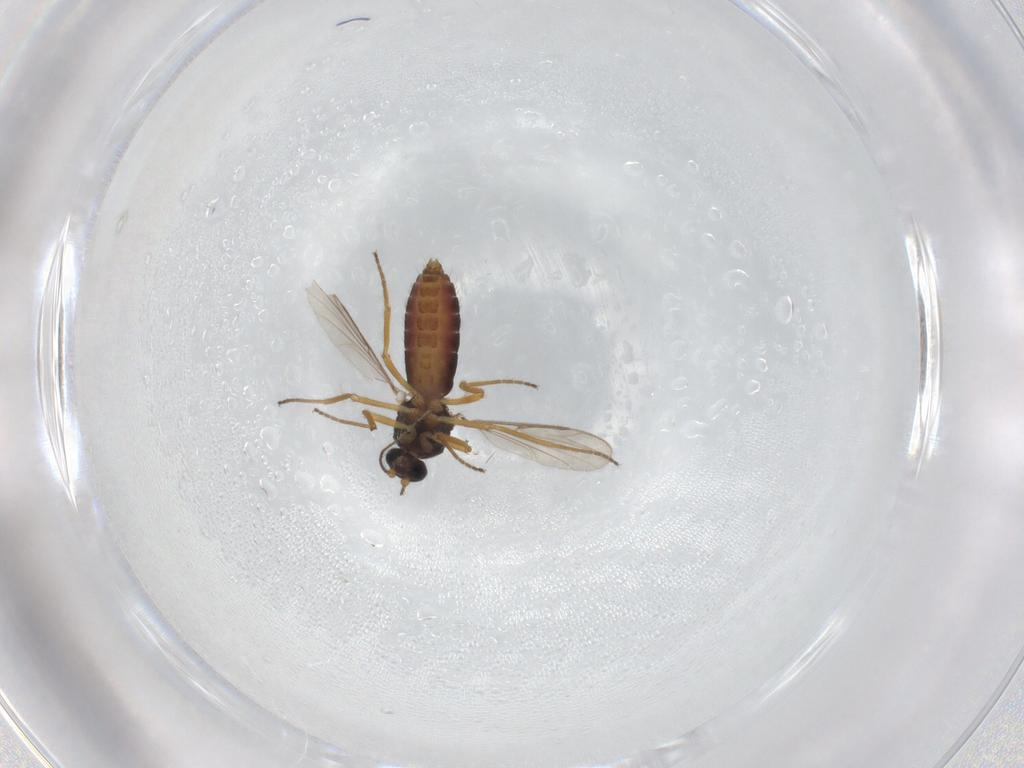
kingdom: Animalia
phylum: Arthropoda
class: Insecta
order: Diptera
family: Ceratopogonidae
